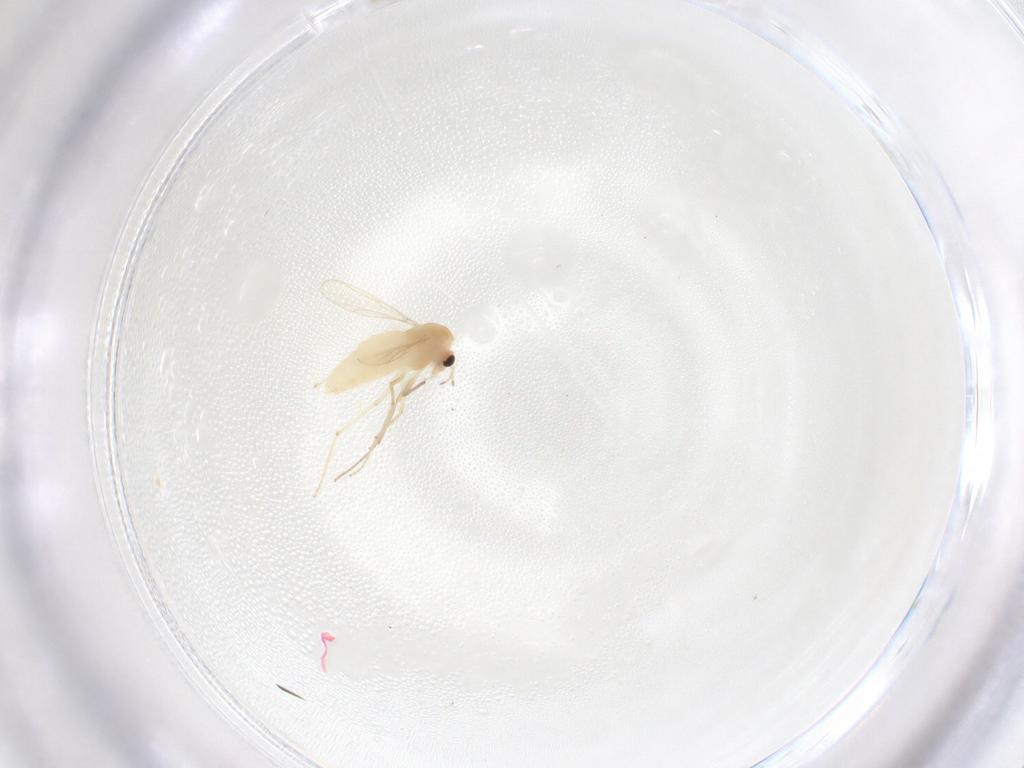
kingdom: Animalia
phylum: Arthropoda
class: Insecta
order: Diptera
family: Chironomidae
